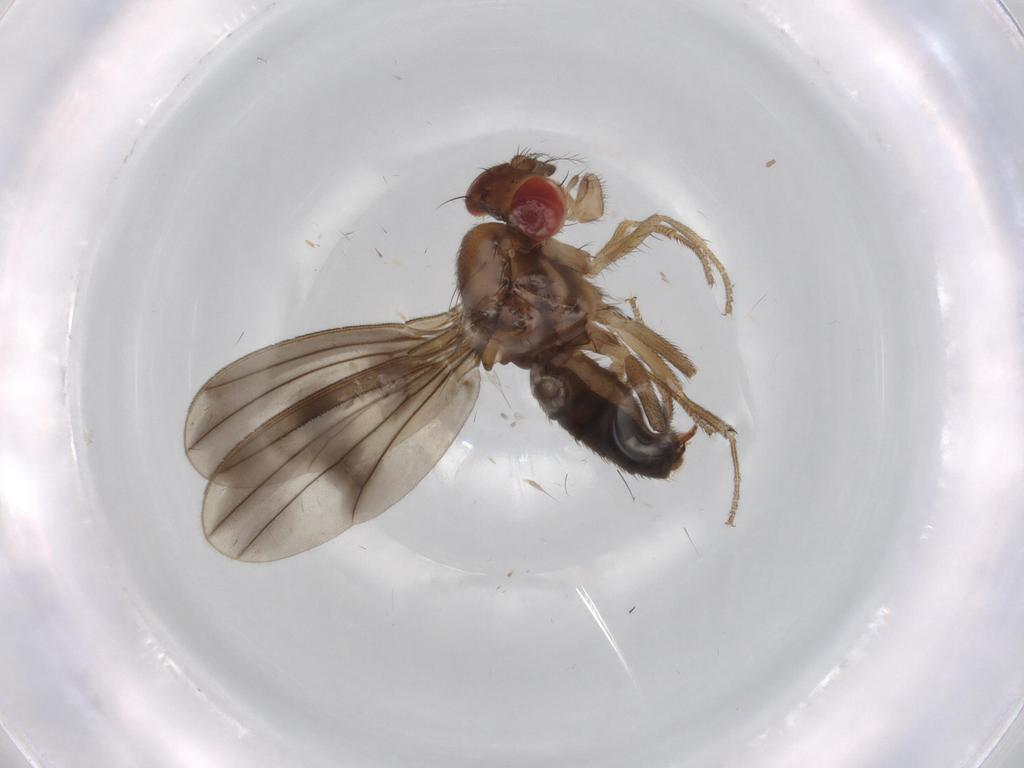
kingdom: Animalia
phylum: Arthropoda
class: Insecta
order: Diptera
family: Drosophilidae
